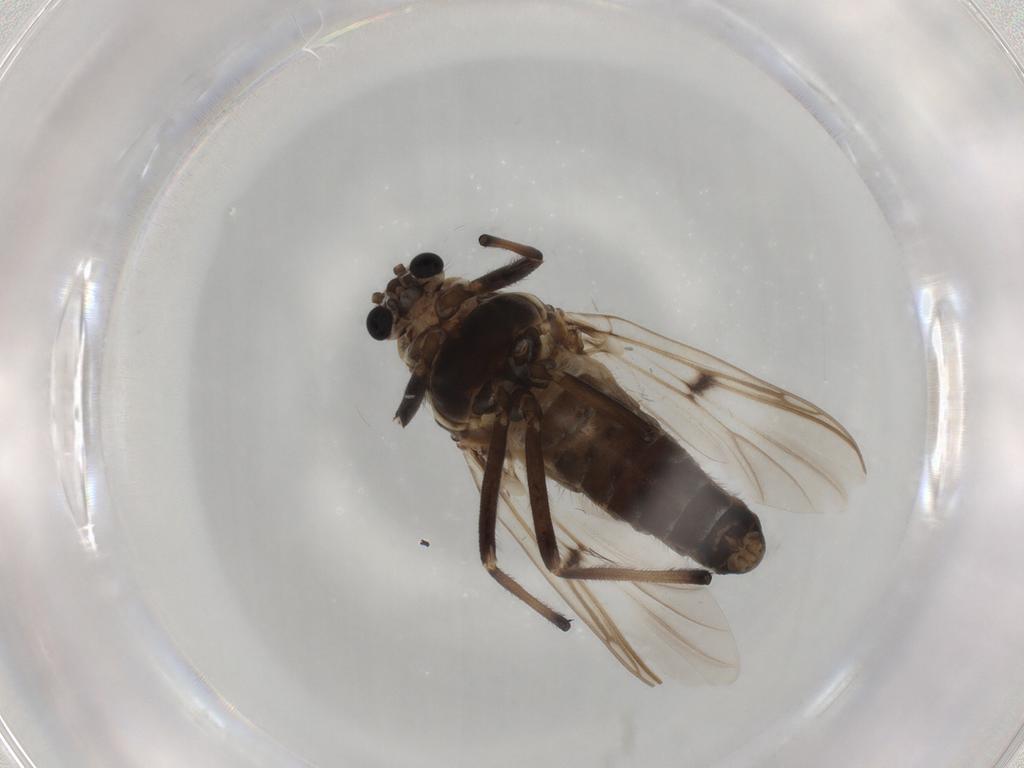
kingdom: Animalia
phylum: Arthropoda
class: Insecta
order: Diptera
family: Chironomidae
